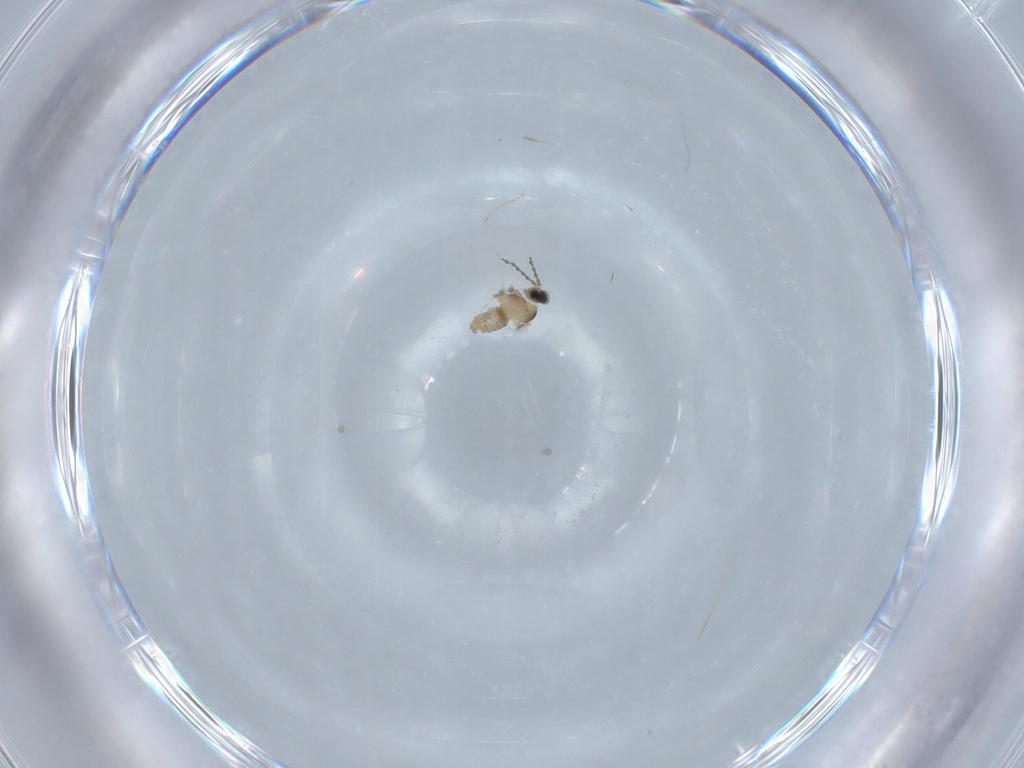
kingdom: Animalia
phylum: Arthropoda
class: Insecta
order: Diptera
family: Cecidomyiidae
